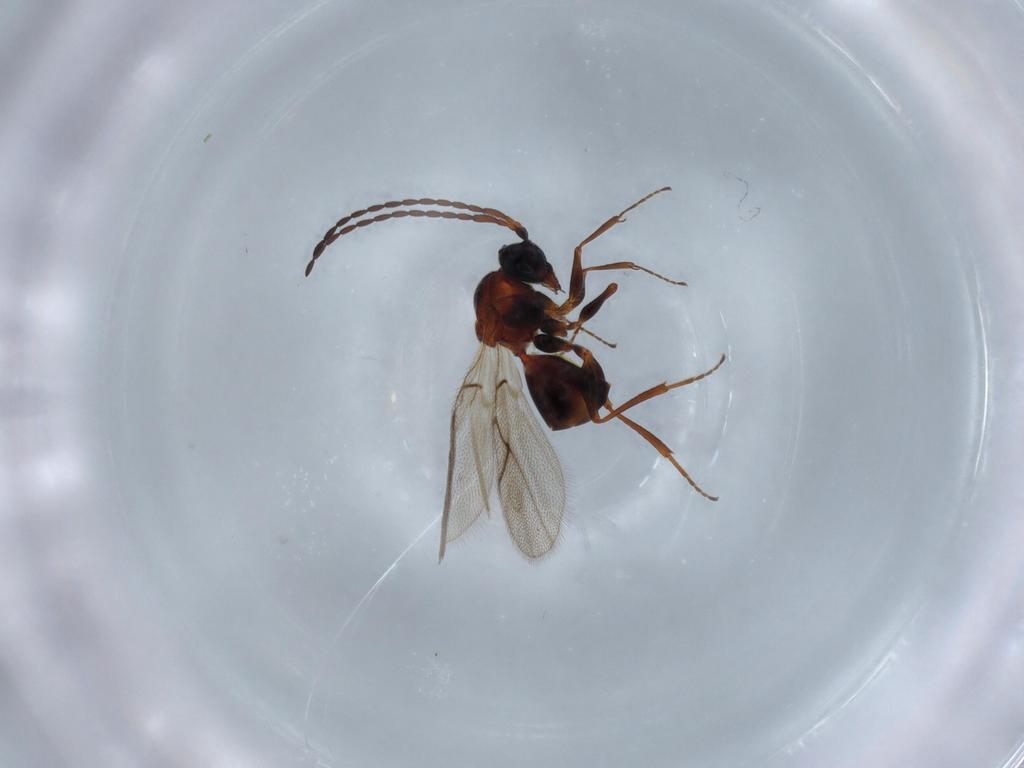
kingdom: Animalia
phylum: Arthropoda
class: Insecta
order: Hymenoptera
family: Figitidae
